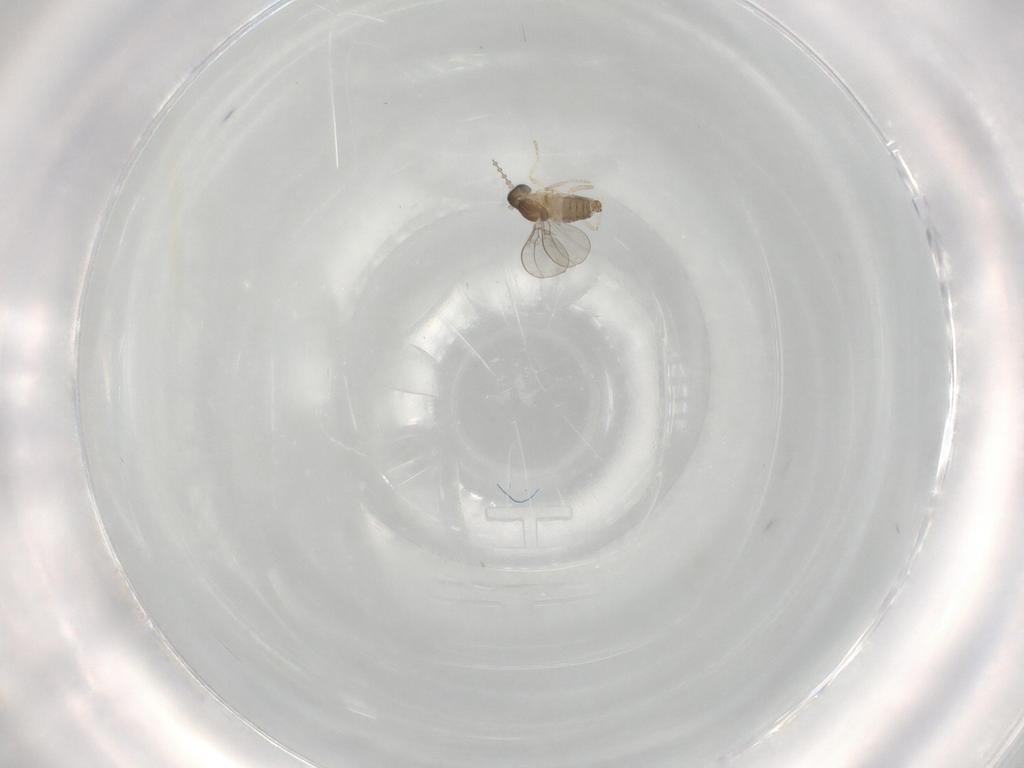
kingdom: Animalia
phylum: Arthropoda
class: Insecta
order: Diptera
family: Cecidomyiidae
